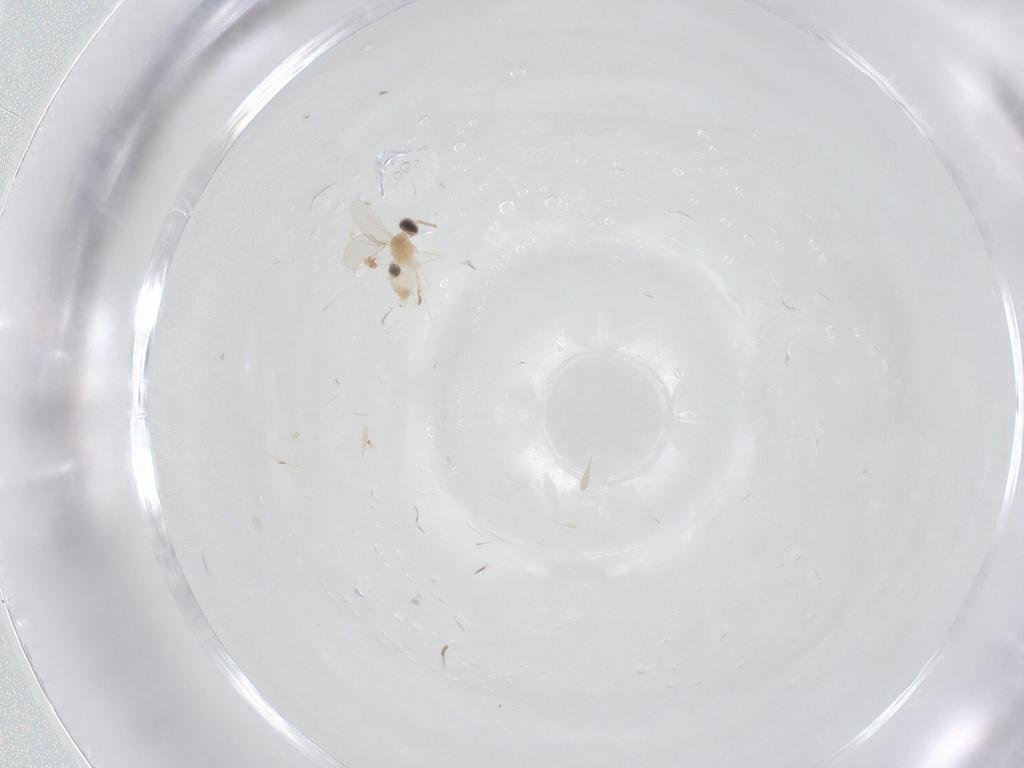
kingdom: Animalia
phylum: Arthropoda
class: Insecta
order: Diptera
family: Cecidomyiidae
